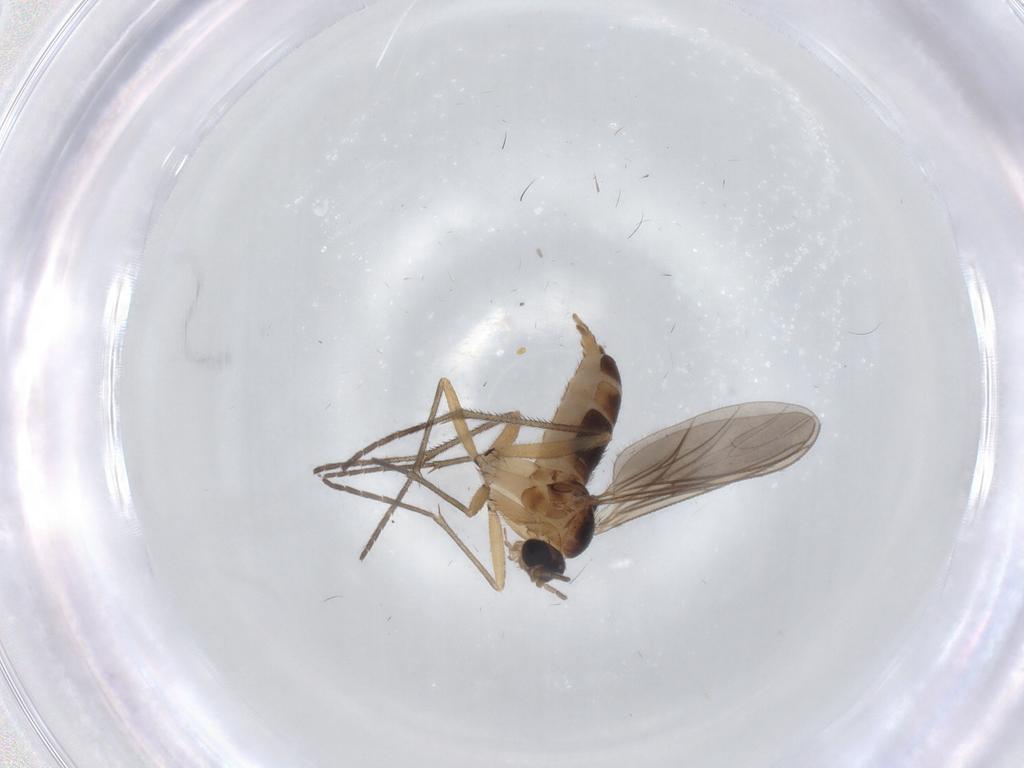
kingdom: Animalia
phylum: Arthropoda
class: Insecta
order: Diptera
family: Sciaridae
